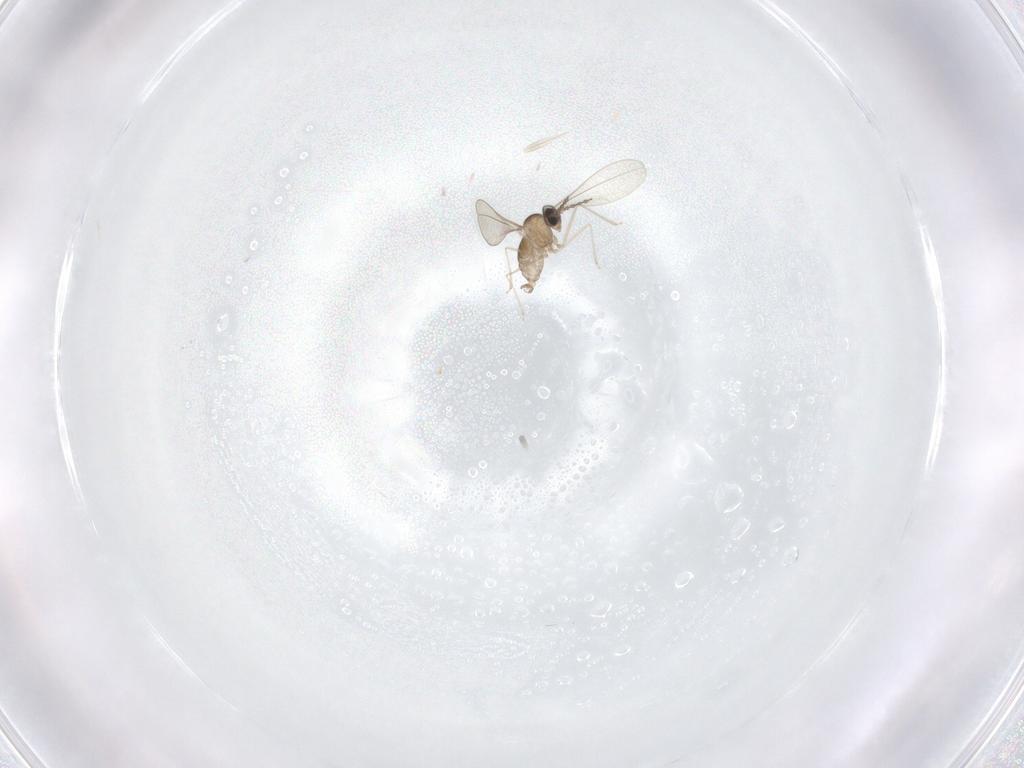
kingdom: Animalia
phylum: Arthropoda
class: Insecta
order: Diptera
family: Cecidomyiidae
